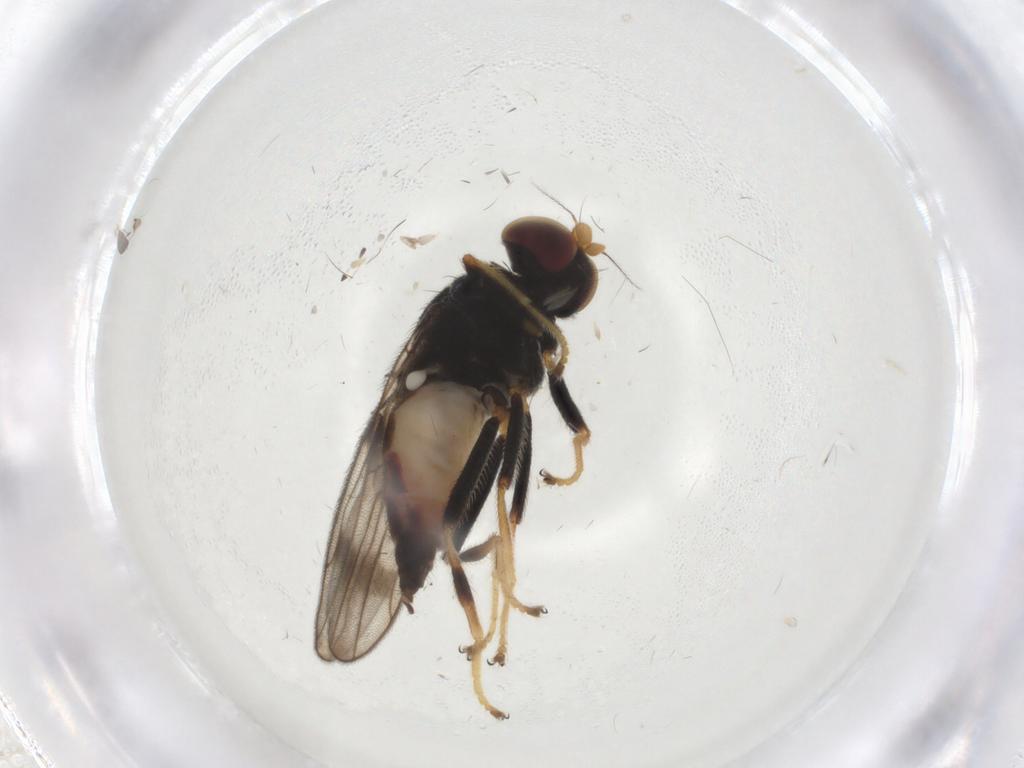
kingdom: Animalia
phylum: Arthropoda
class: Insecta
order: Diptera
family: Chloropidae
